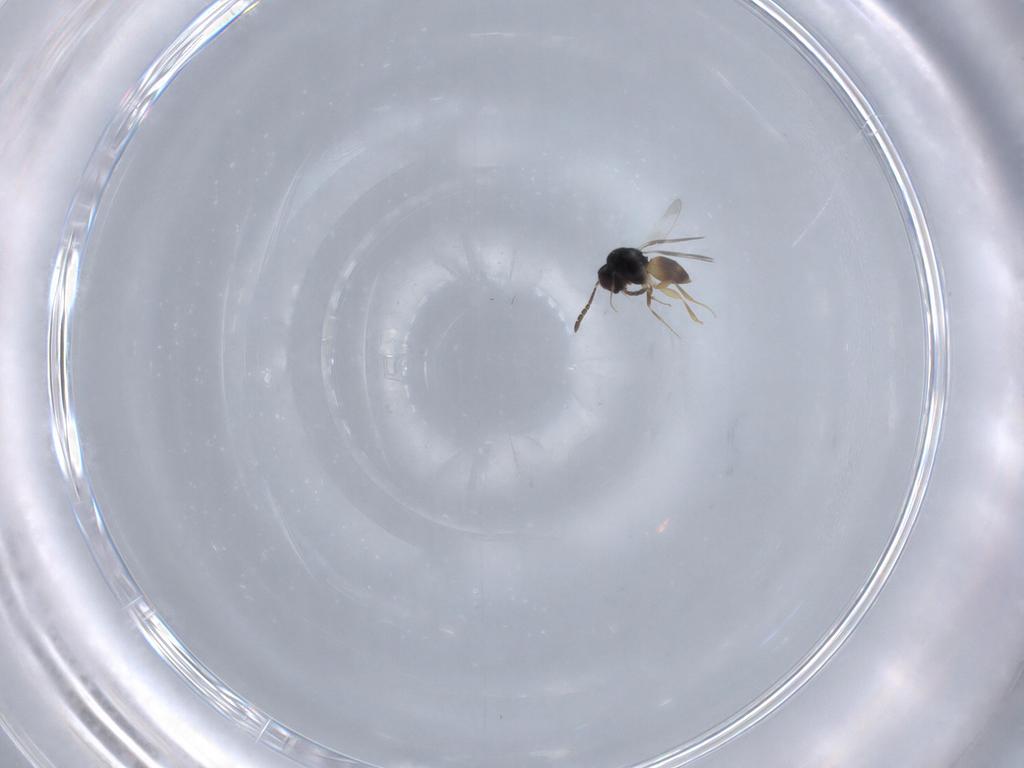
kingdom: Animalia
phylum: Arthropoda
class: Insecta
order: Hymenoptera
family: Ceraphronidae
